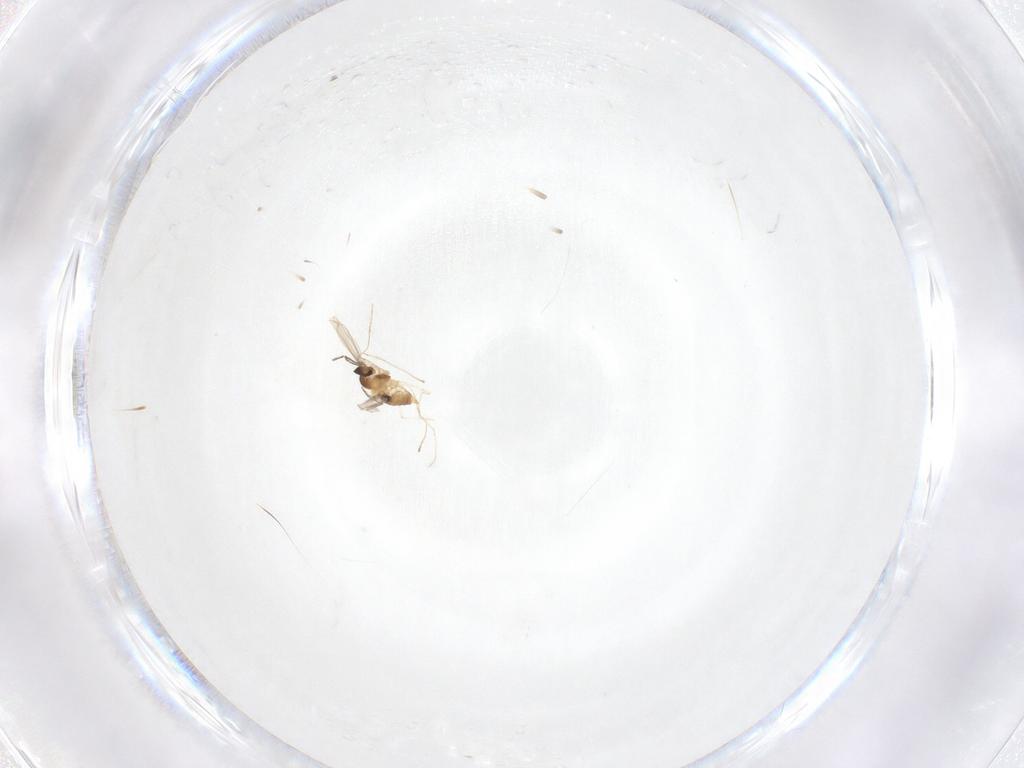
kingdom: Animalia
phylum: Arthropoda
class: Insecta
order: Diptera
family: Cecidomyiidae
